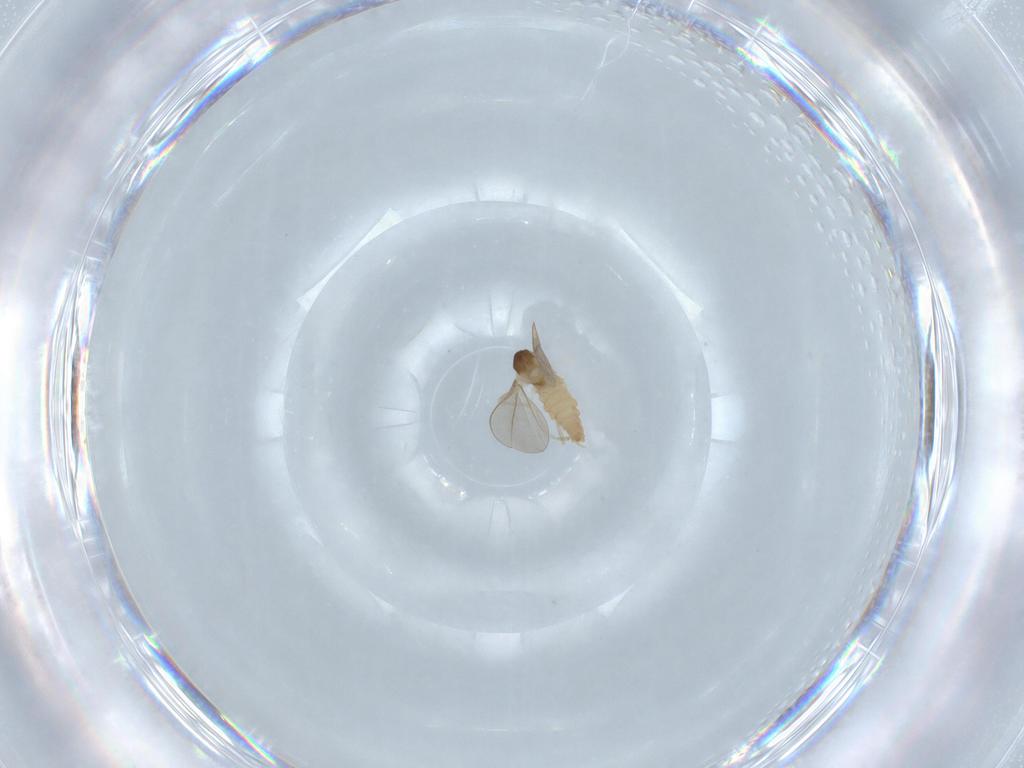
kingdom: Animalia
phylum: Arthropoda
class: Insecta
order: Diptera
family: Cecidomyiidae
